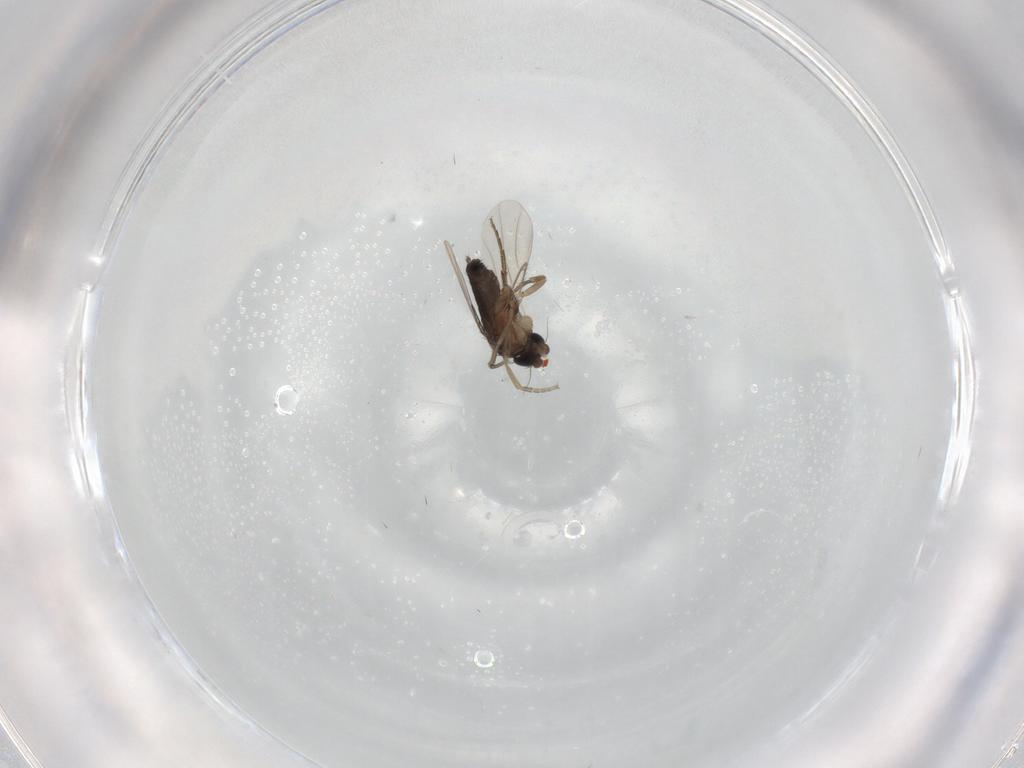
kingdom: Animalia
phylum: Arthropoda
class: Insecta
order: Diptera
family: Phoridae
